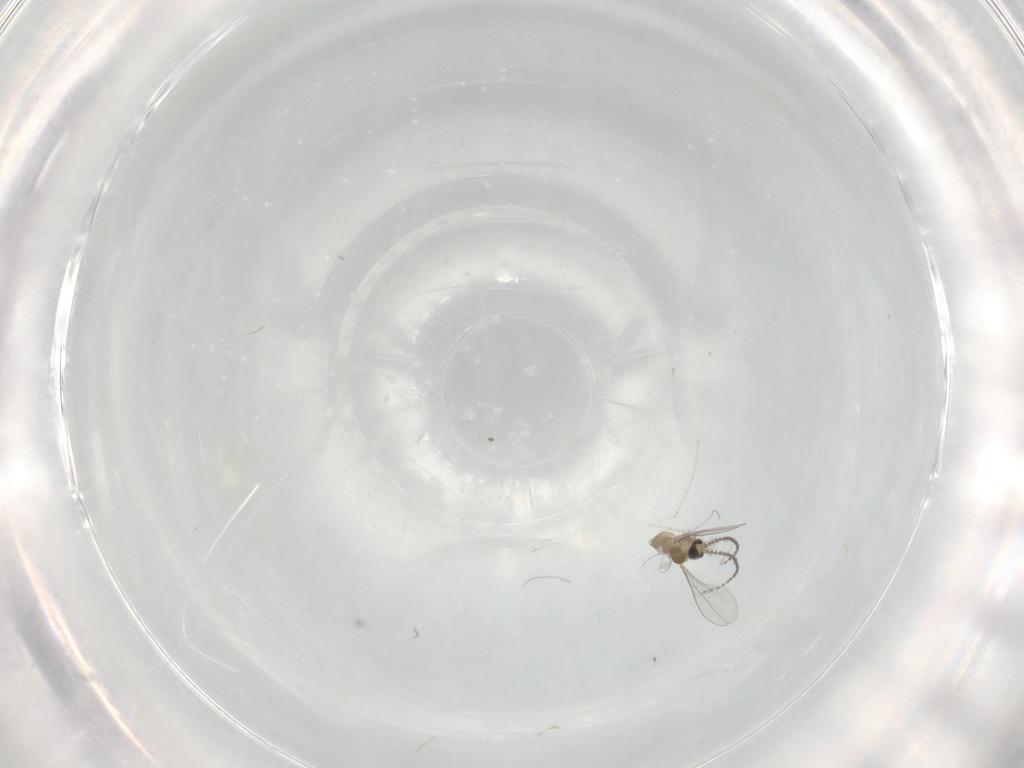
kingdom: Animalia
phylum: Arthropoda
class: Insecta
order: Diptera
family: Cecidomyiidae
